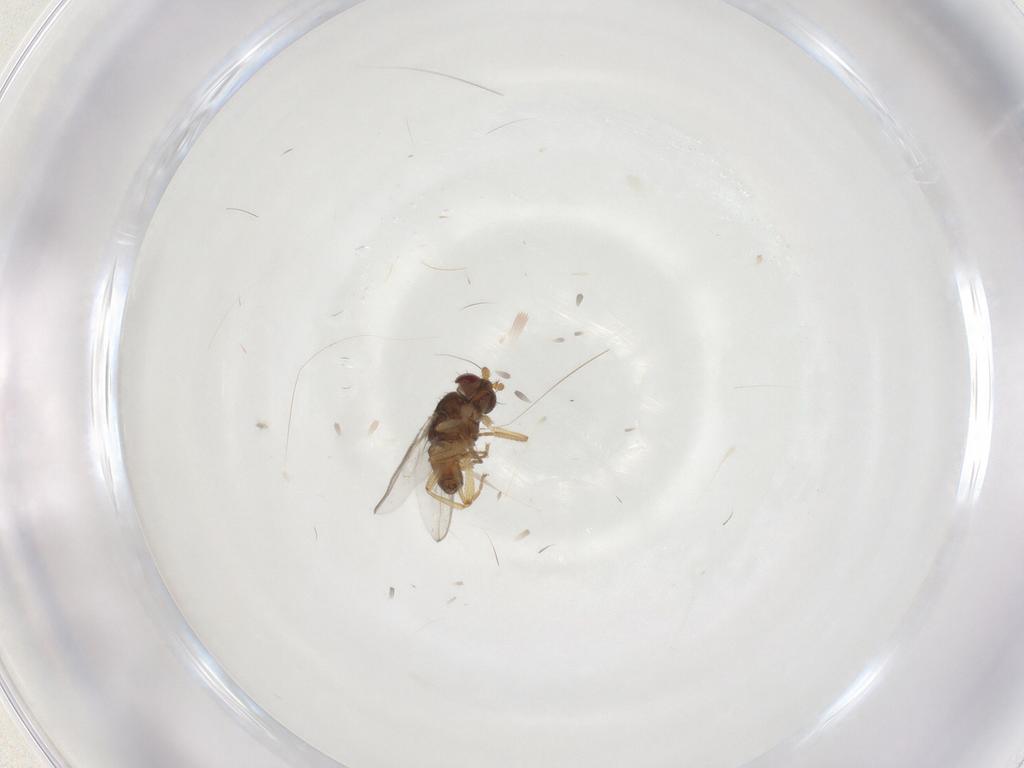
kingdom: Animalia
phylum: Arthropoda
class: Insecta
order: Diptera
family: Sphaeroceridae
